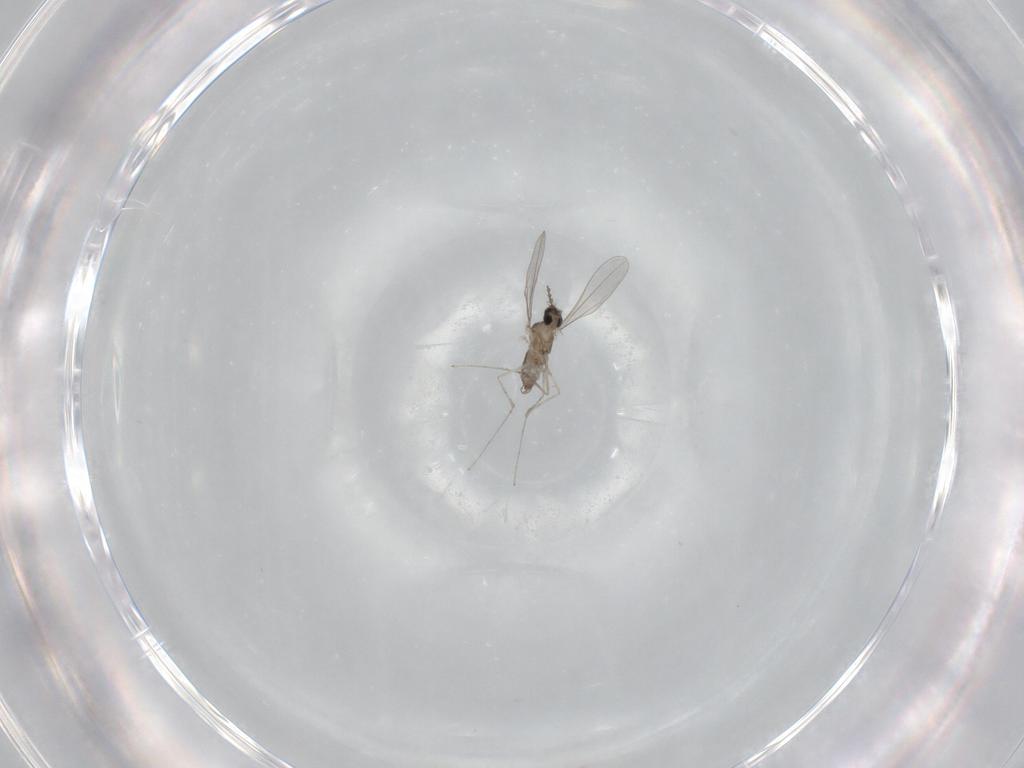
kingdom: Animalia
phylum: Arthropoda
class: Insecta
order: Diptera
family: Cecidomyiidae
